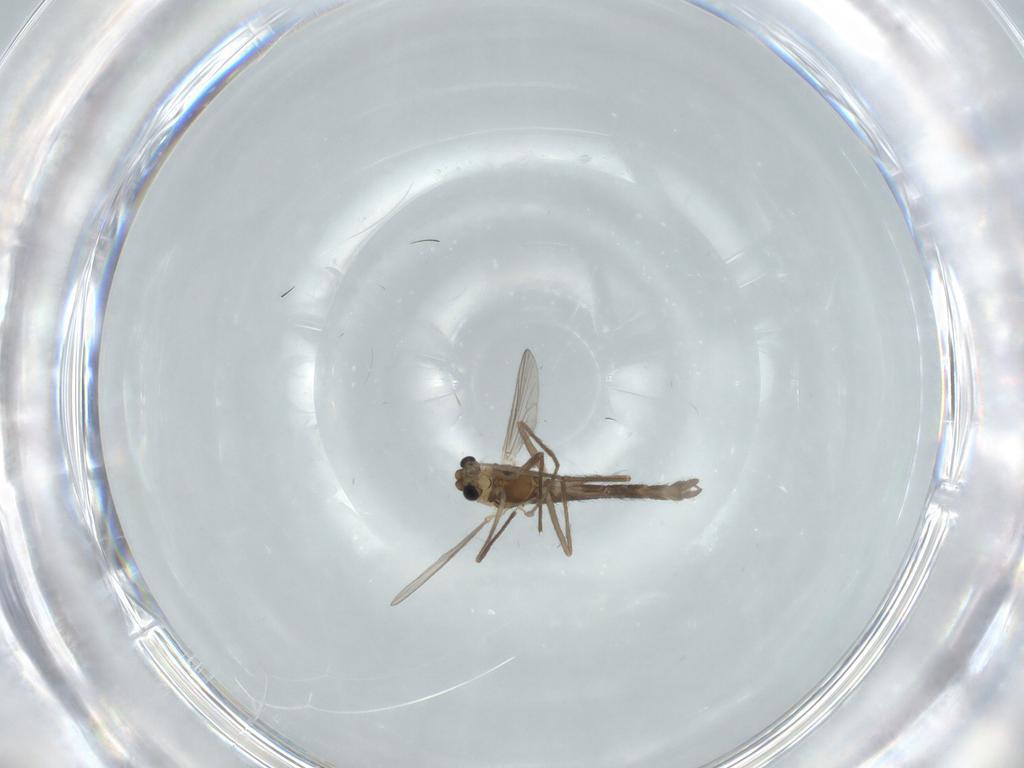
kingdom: Animalia
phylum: Arthropoda
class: Insecta
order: Diptera
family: Chironomidae
